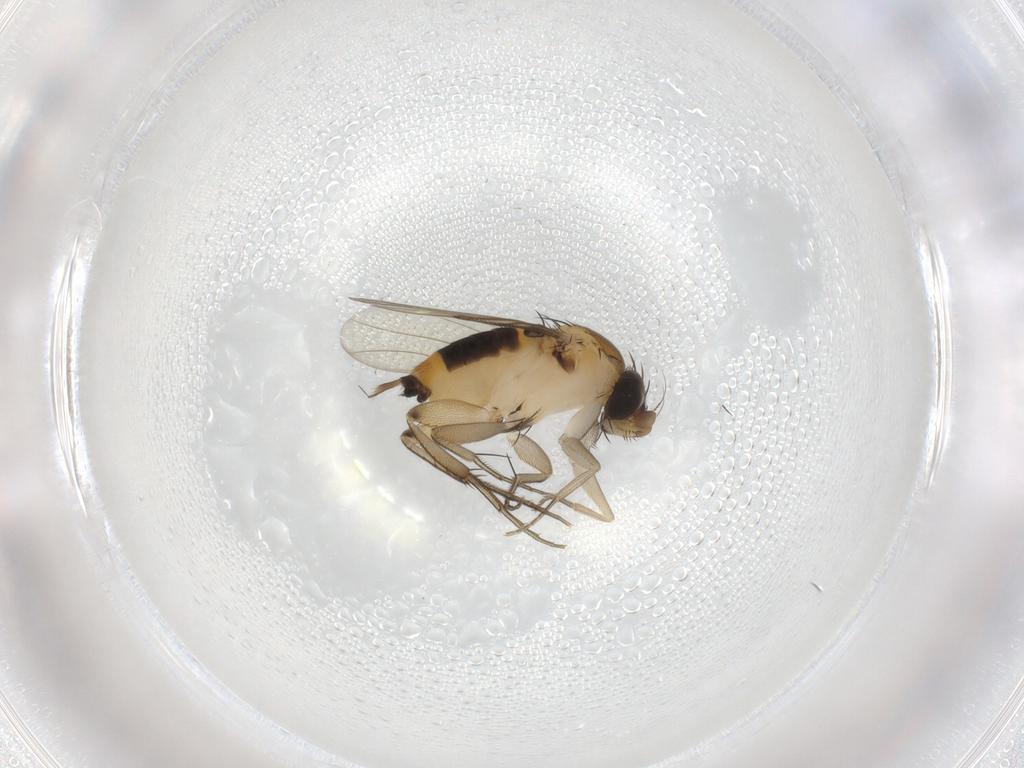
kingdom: Animalia
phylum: Arthropoda
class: Insecta
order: Diptera
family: Phoridae
